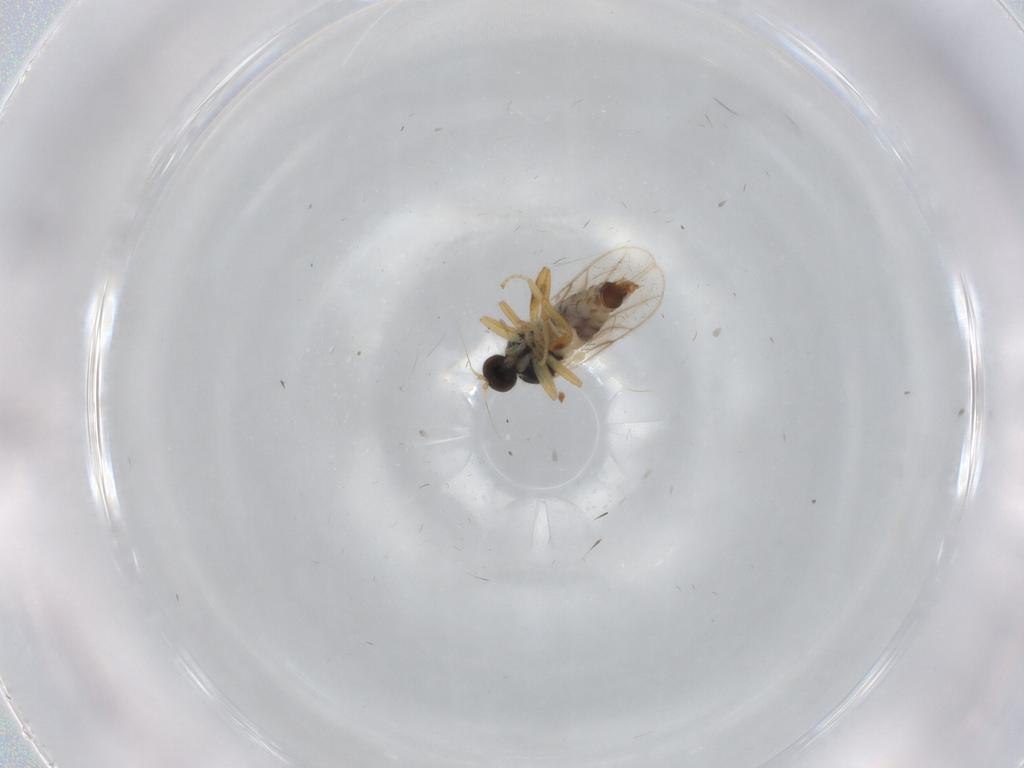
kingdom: Animalia
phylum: Arthropoda
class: Insecta
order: Diptera
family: Hybotidae
